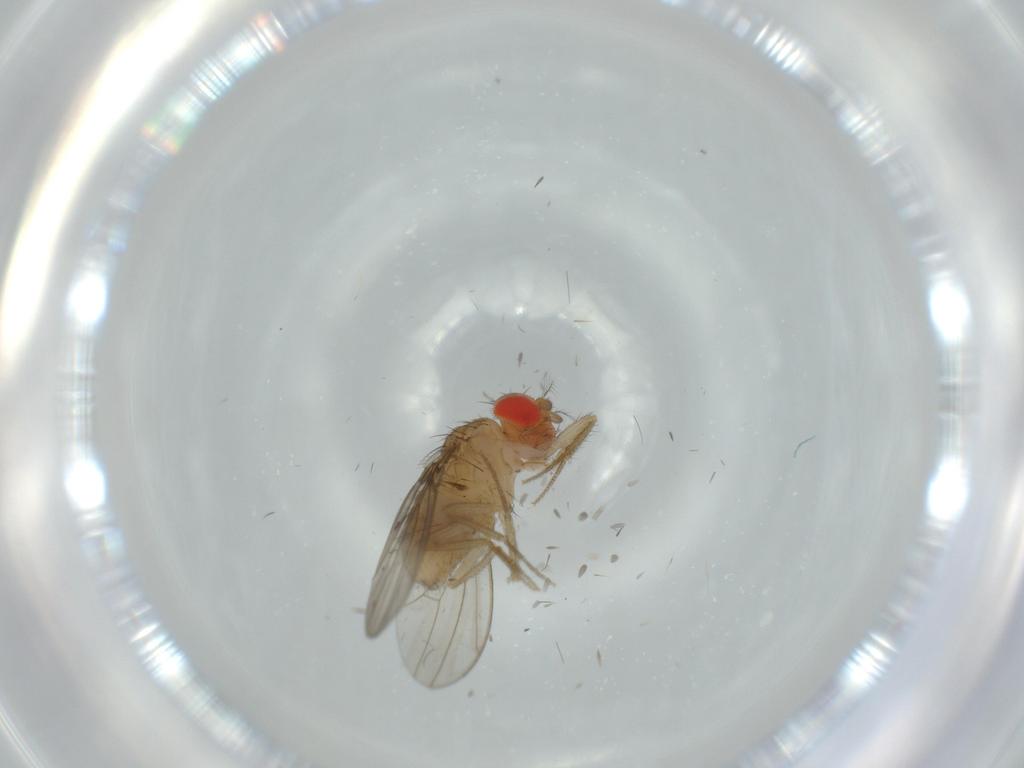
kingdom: Animalia
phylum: Arthropoda
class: Insecta
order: Diptera
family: Drosophilidae
